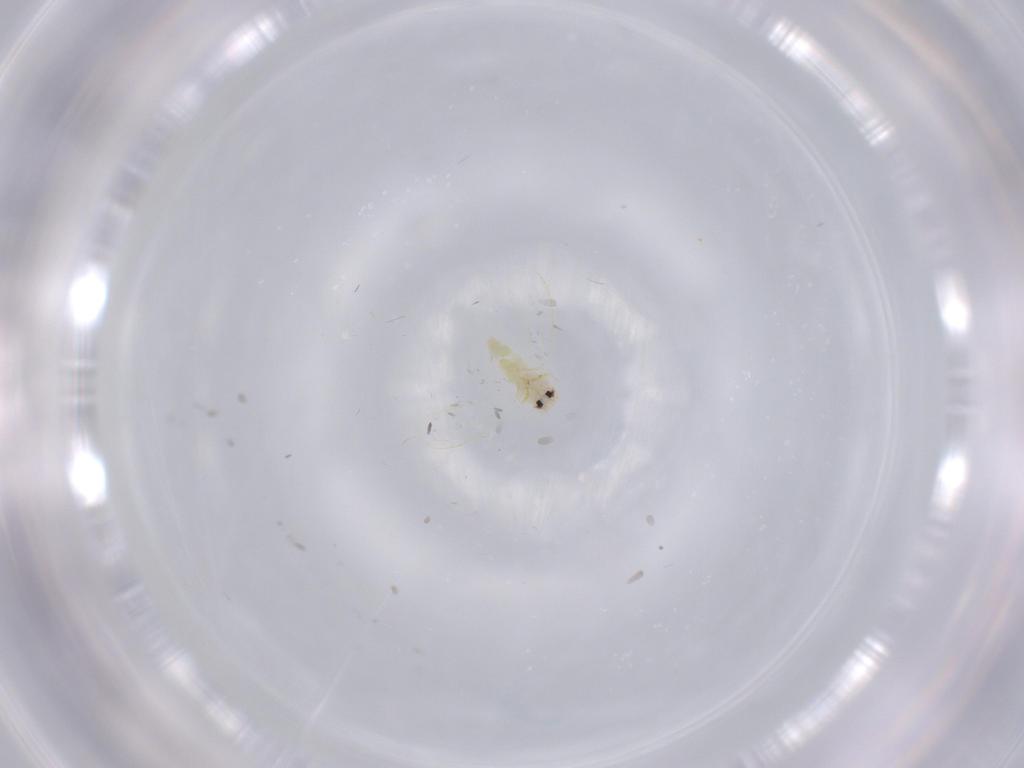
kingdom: Animalia
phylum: Arthropoda
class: Insecta
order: Hemiptera
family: Aleyrodidae
